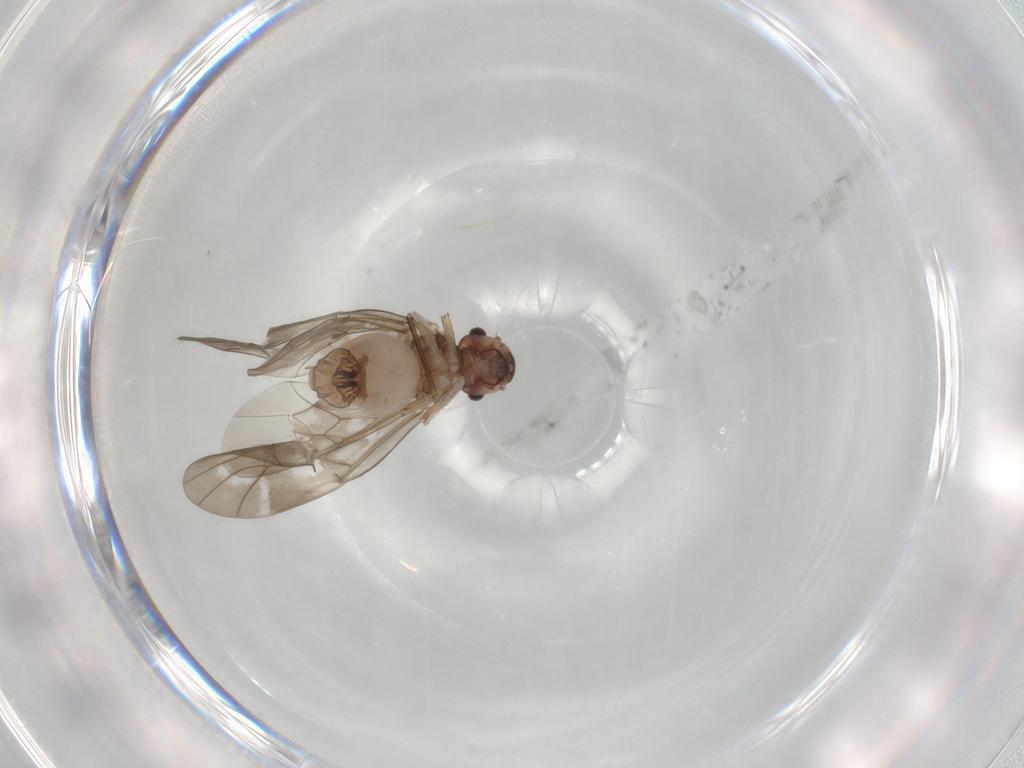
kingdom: Animalia
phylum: Arthropoda
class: Insecta
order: Psocodea
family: Peripsocidae
